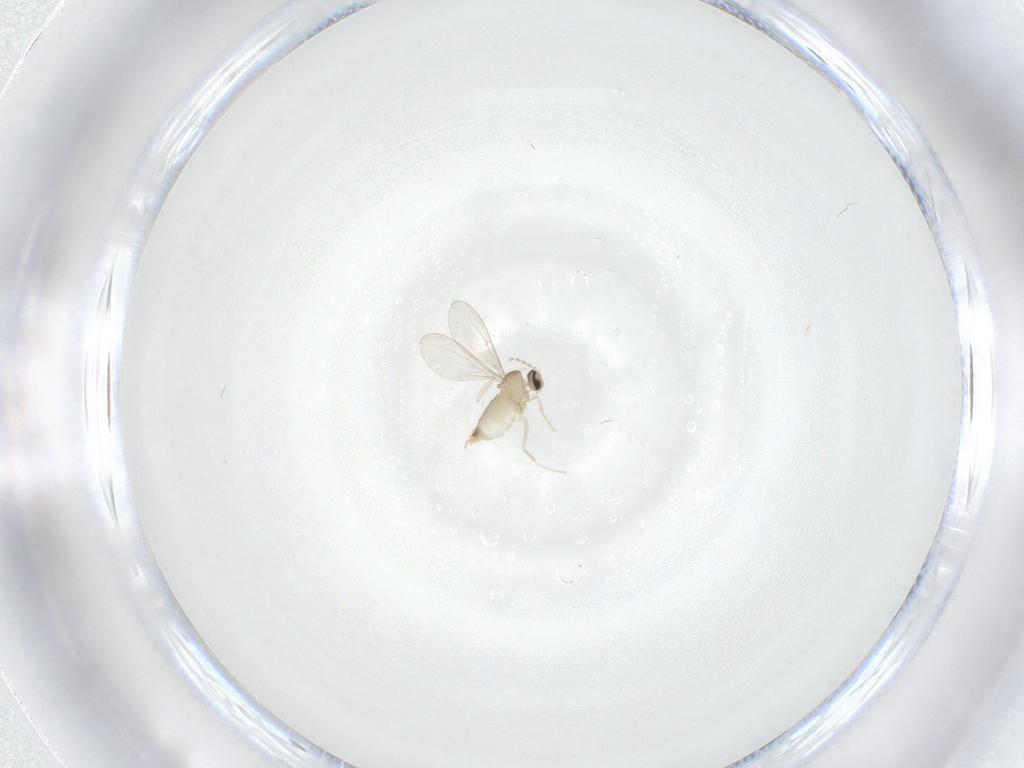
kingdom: Animalia
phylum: Arthropoda
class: Insecta
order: Diptera
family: Cecidomyiidae
